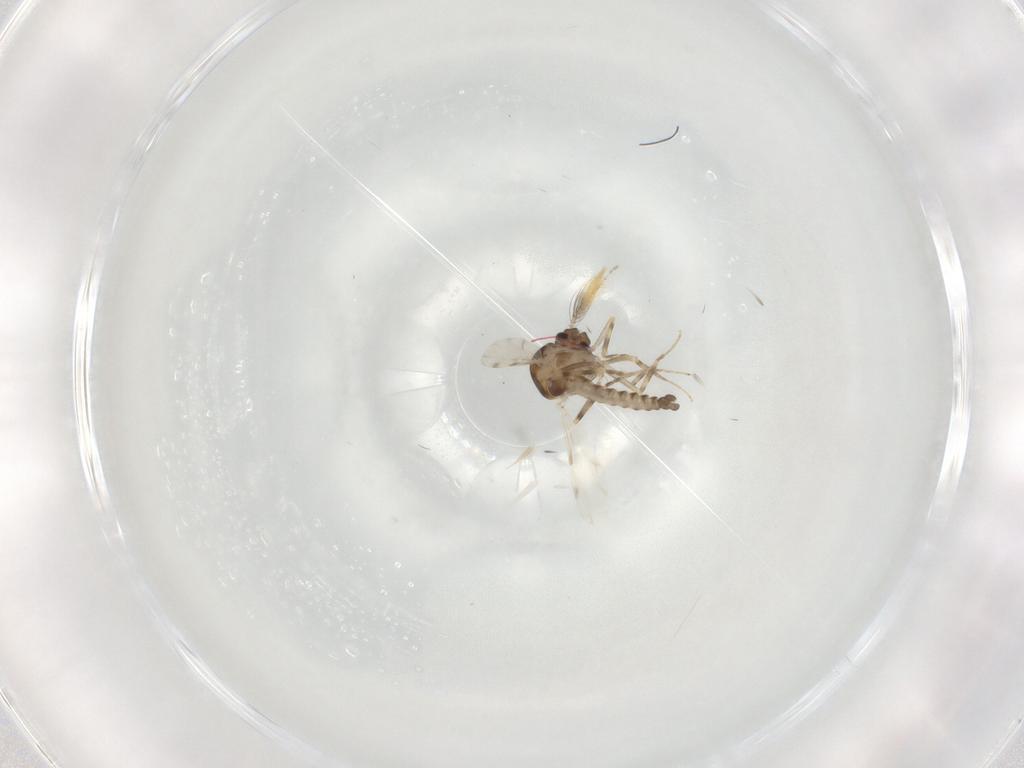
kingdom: Animalia
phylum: Arthropoda
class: Insecta
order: Diptera
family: Ceratopogonidae
